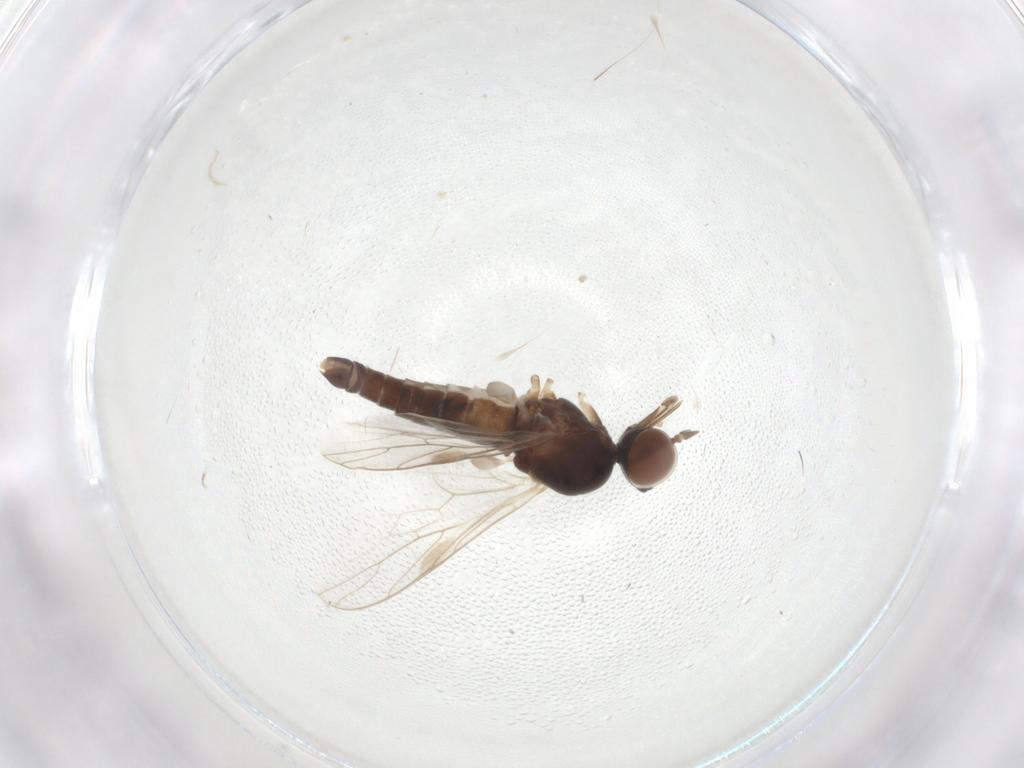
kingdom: Animalia
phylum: Arthropoda
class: Insecta
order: Diptera
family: Scenopinidae
